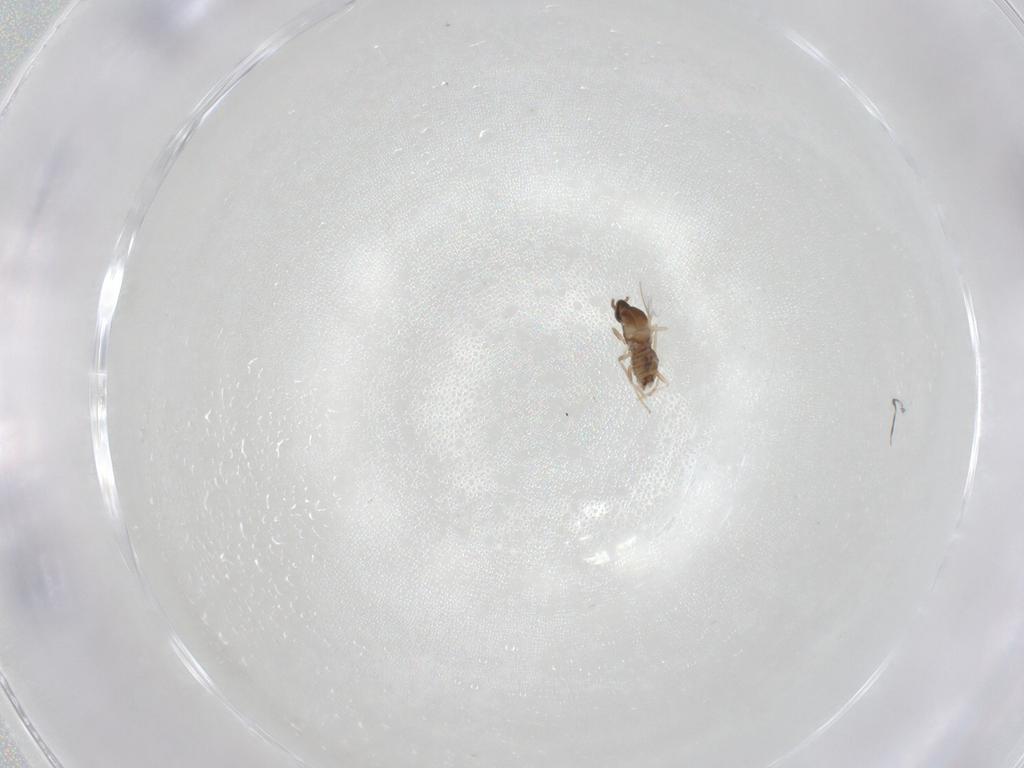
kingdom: Animalia
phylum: Arthropoda
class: Insecta
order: Diptera
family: Cecidomyiidae
